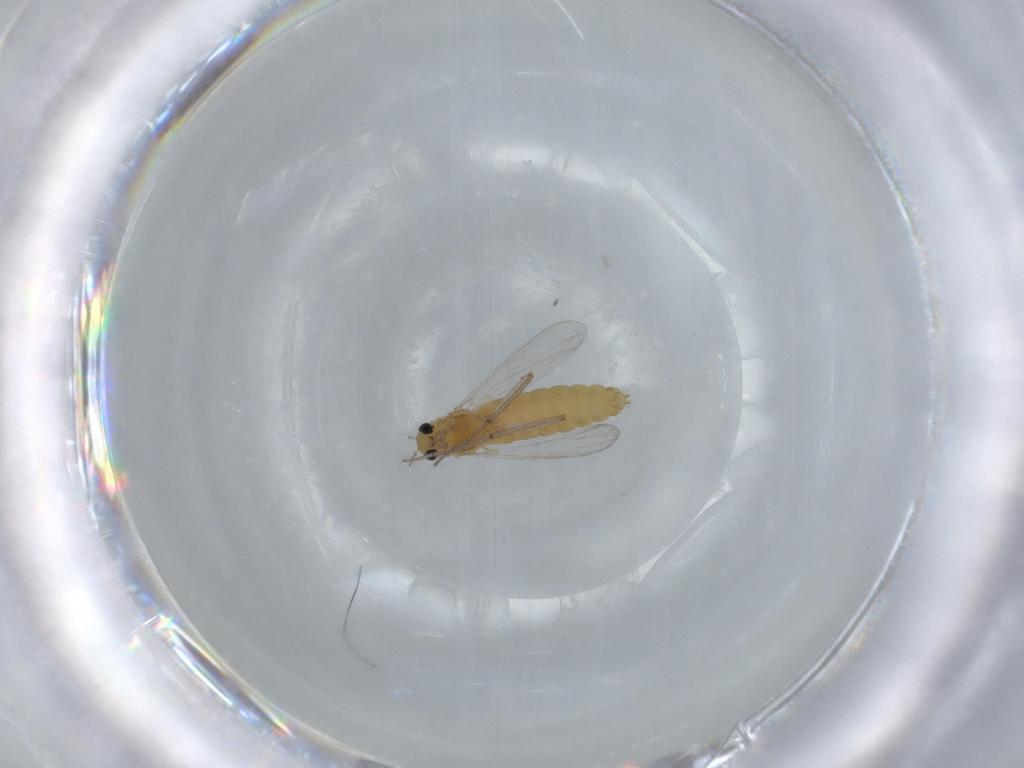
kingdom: Animalia
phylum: Arthropoda
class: Insecta
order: Diptera
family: Chironomidae
